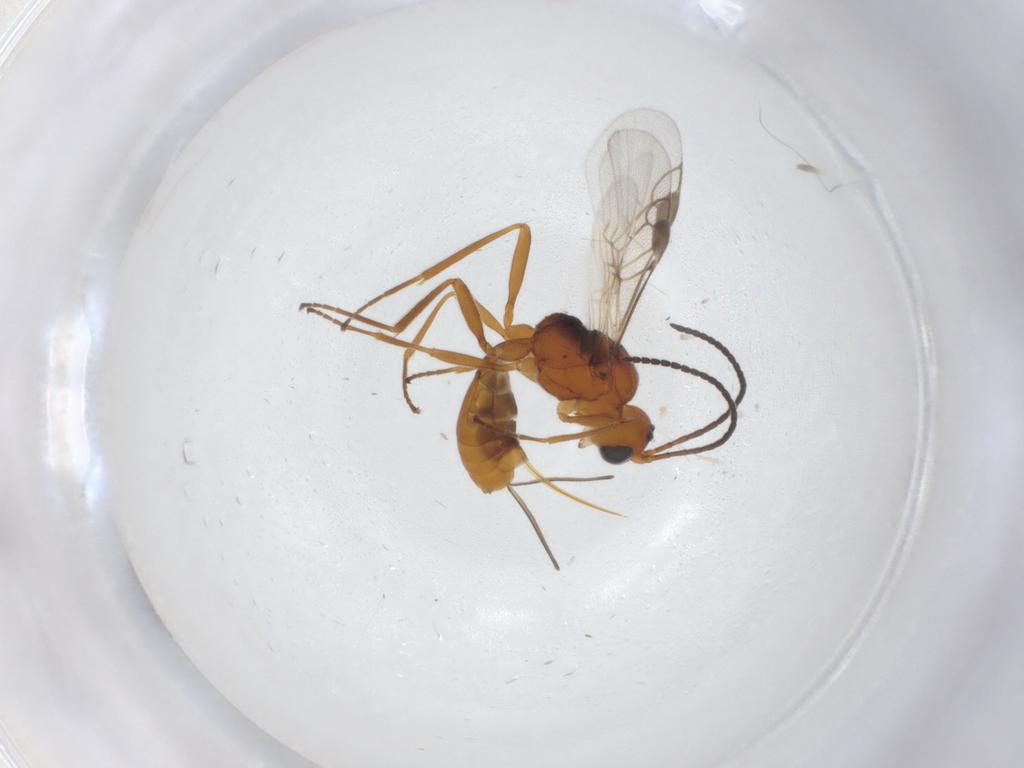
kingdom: Animalia
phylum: Arthropoda
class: Insecta
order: Hymenoptera
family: Braconidae
